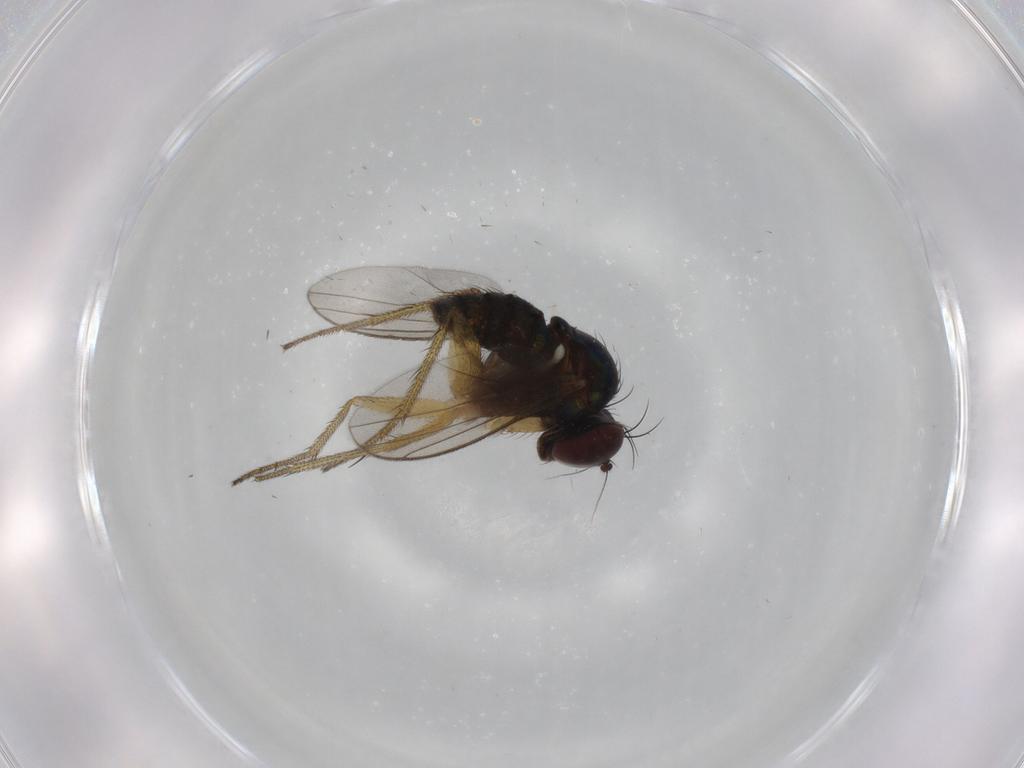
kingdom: Animalia
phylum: Arthropoda
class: Insecta
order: Diptera
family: Ceratopogonidae
